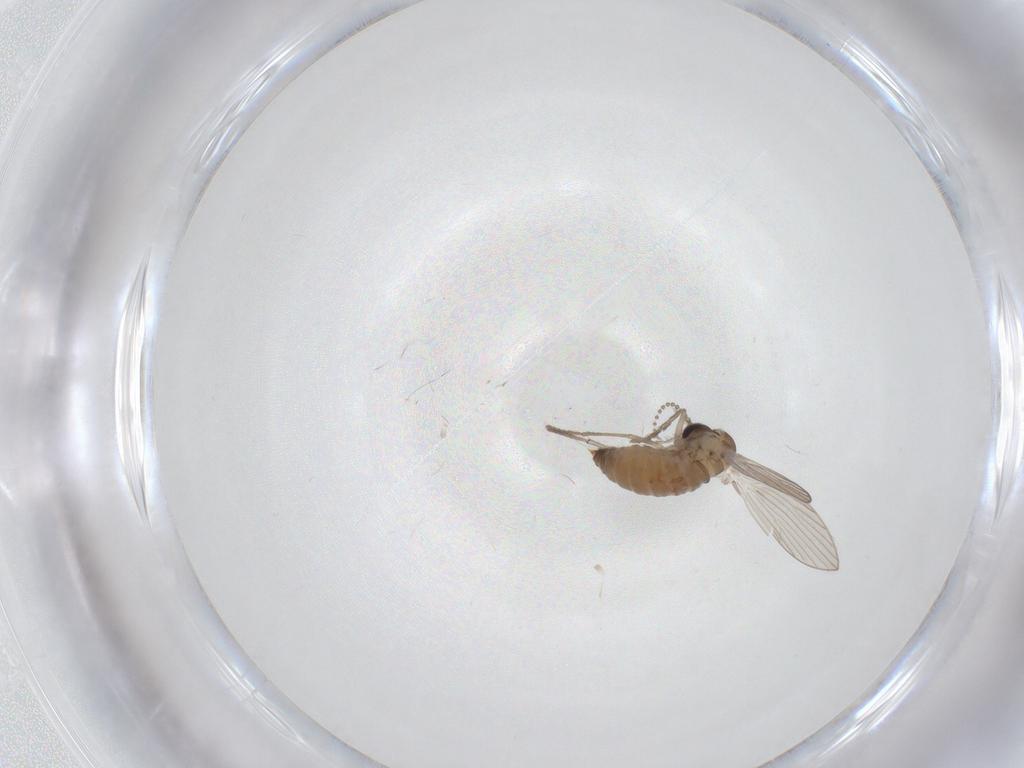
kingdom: Animalia
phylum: Arthropoda
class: Insecta
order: Diptera
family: Psychodidae
